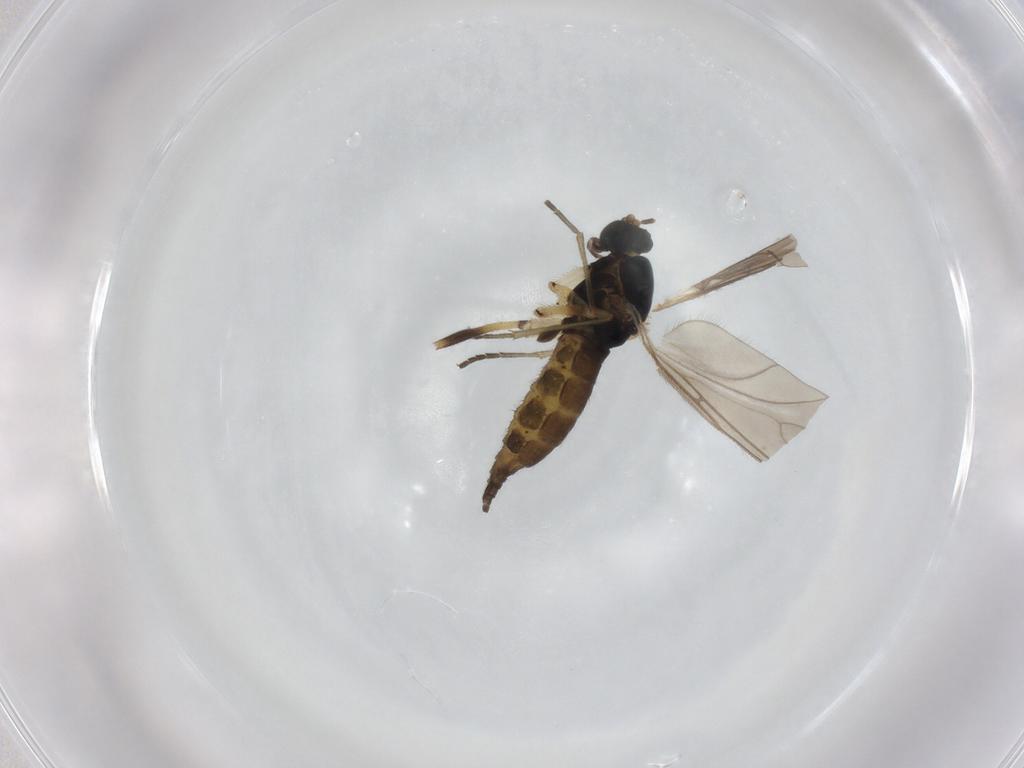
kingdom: Animalia
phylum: Arthropoda
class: Insecta
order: Diptera
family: Sciaridae
